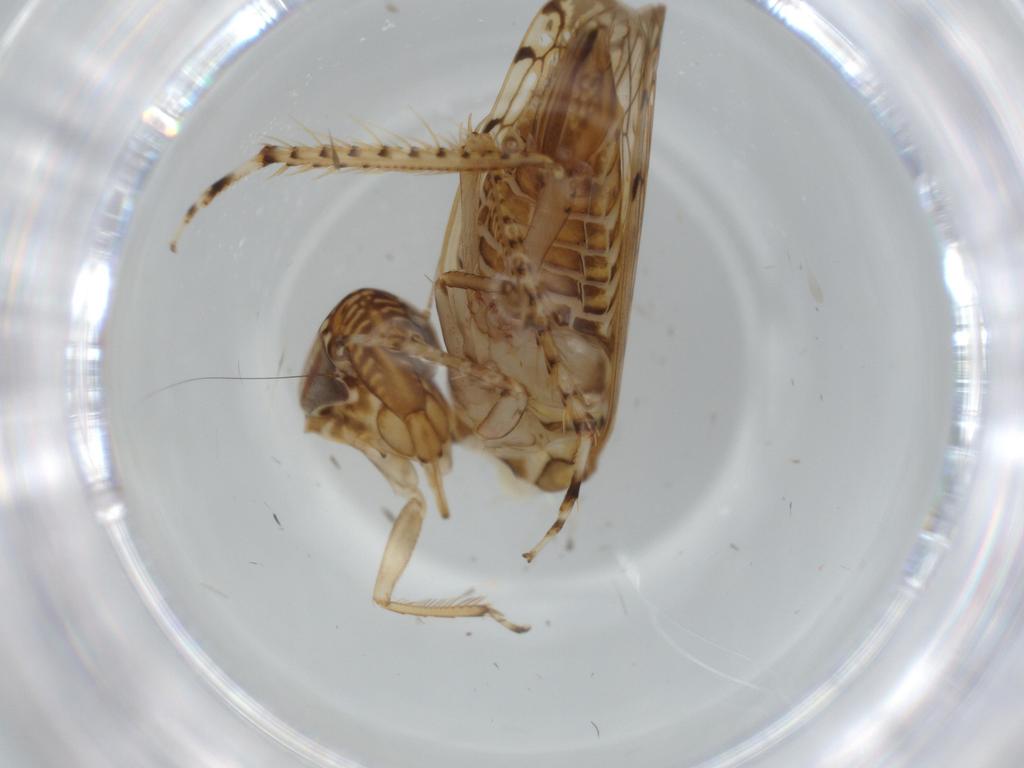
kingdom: Animalia
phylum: Arthropoda
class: Insecta
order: Hemiptera
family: Cicadellidae
